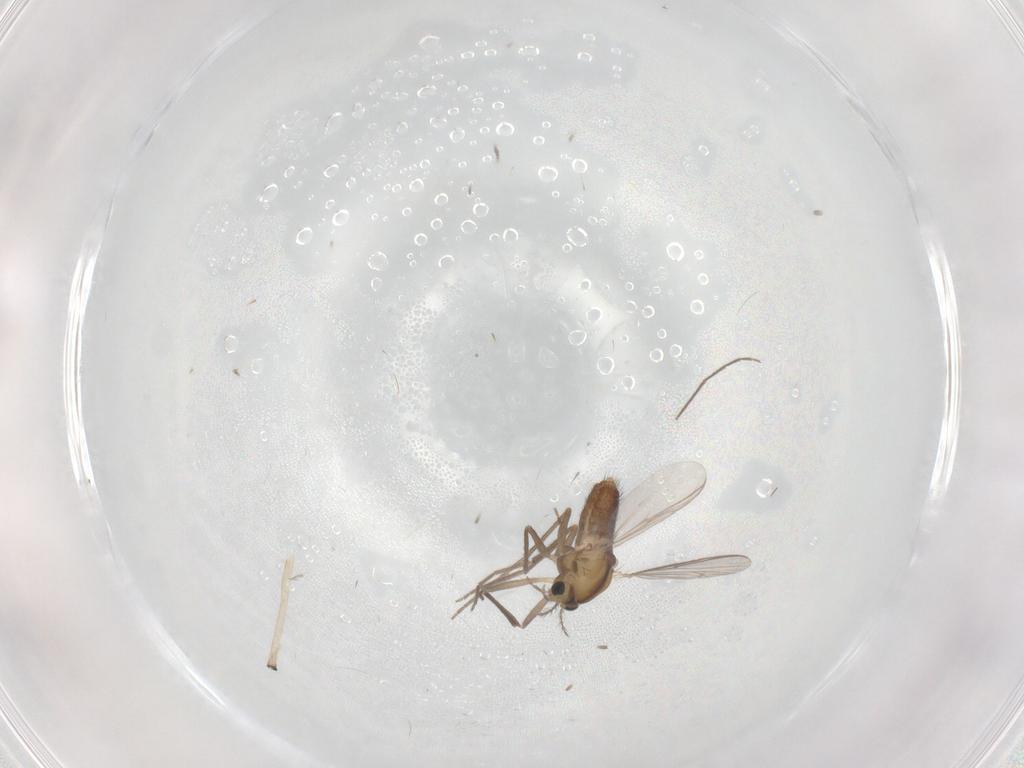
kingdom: Animalia
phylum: Arthropoda
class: Insecta
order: Diptera
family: Chironomidae
